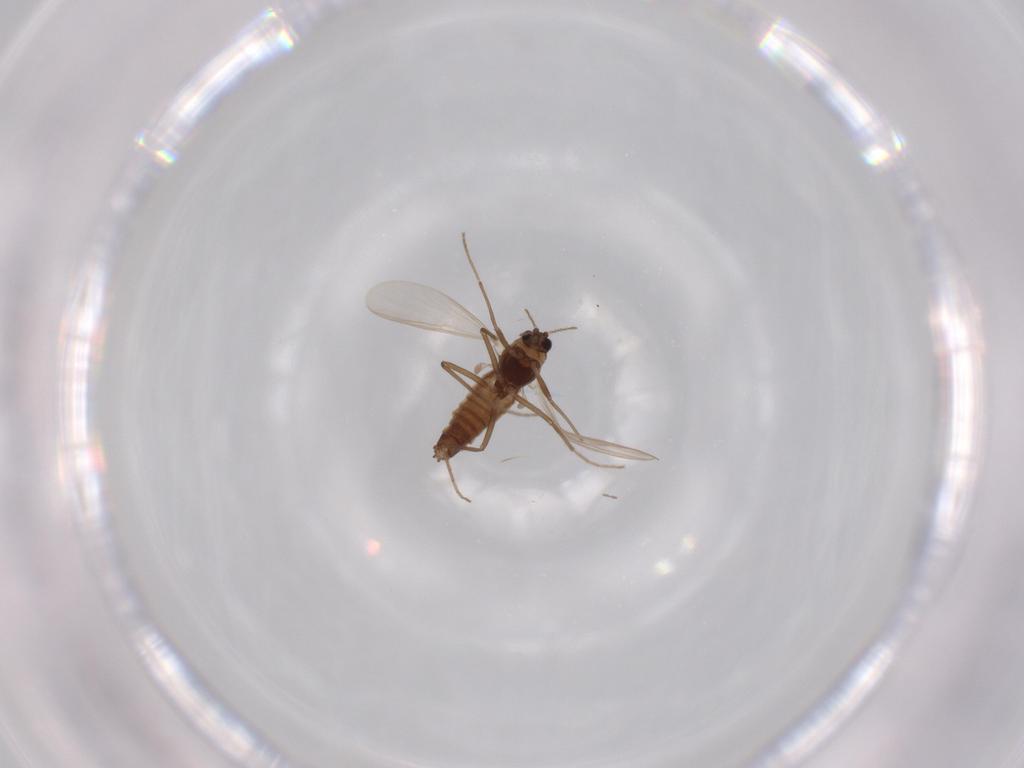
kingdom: Animalia
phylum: Arthropoda
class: Insecta
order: Diptera
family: Chironomidae
